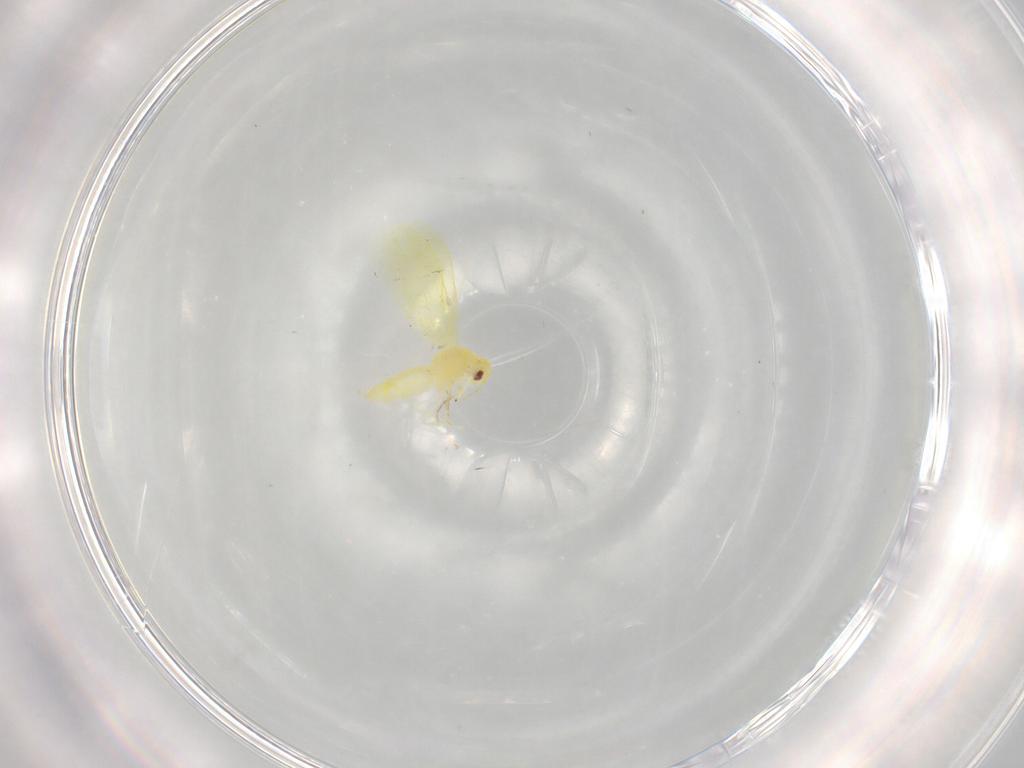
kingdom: Animalia
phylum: Arthropoda
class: Insecta
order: Hemiptera
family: Aleyrodidae
